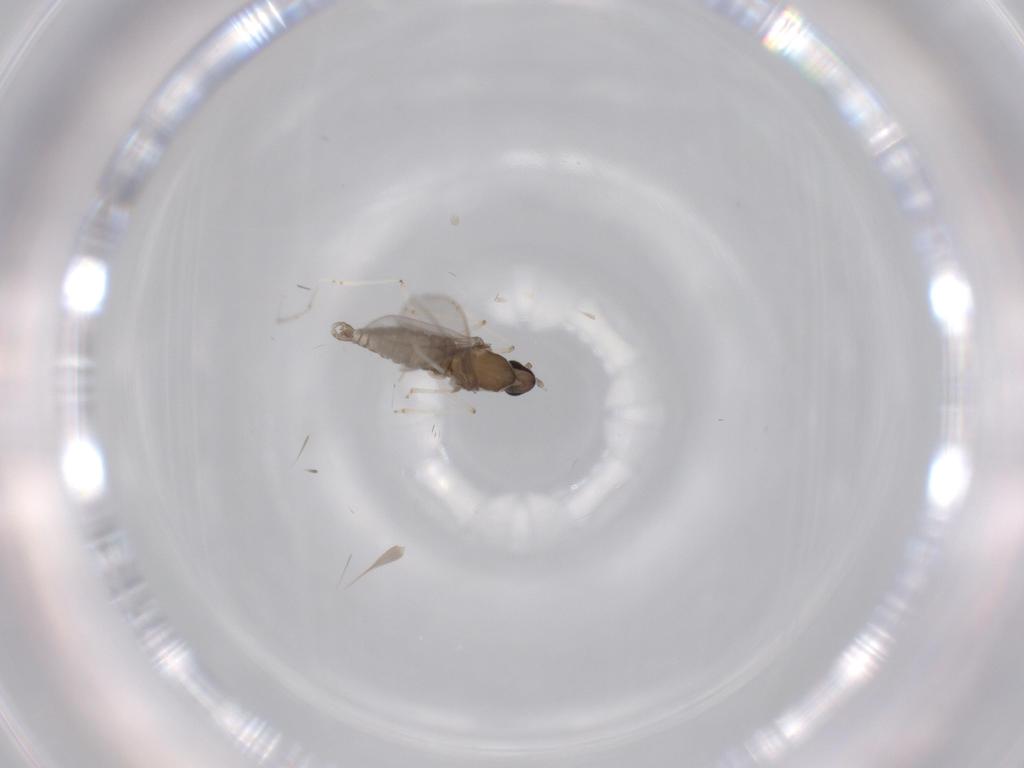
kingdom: Animalia
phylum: Arthropoda
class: Insecta
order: Diptera
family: Cecidomyiidae
